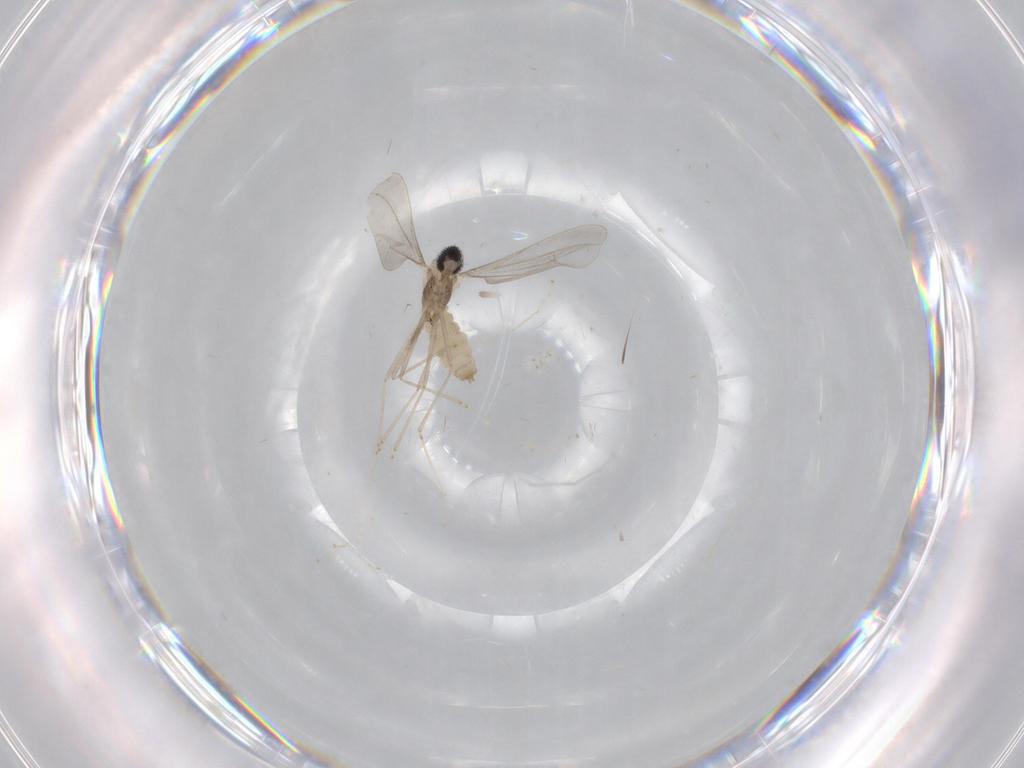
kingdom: Animalia
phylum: Arthropoda
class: Insecta
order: Diptera
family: Cecidomyiidae
